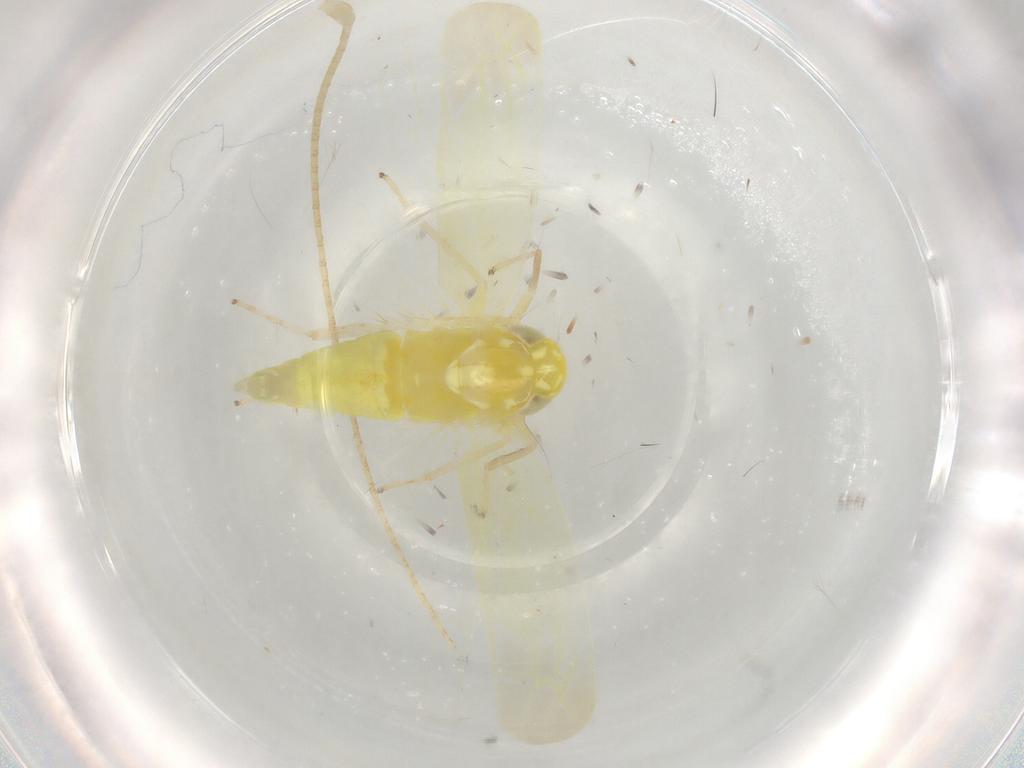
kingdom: Animalia
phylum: Arthropoda
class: Insecta
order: Hemiptera
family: Cicadellidae
